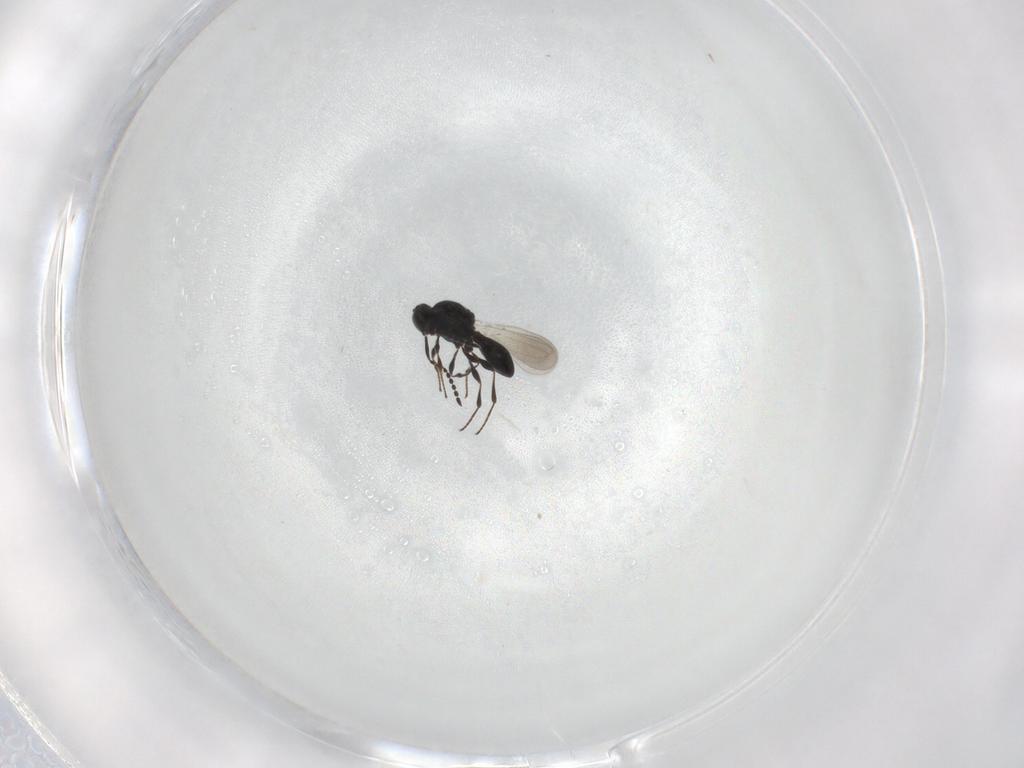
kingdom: Animalia
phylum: Arthropoda
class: Insecta
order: Hymenoptera
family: Platygastridae
